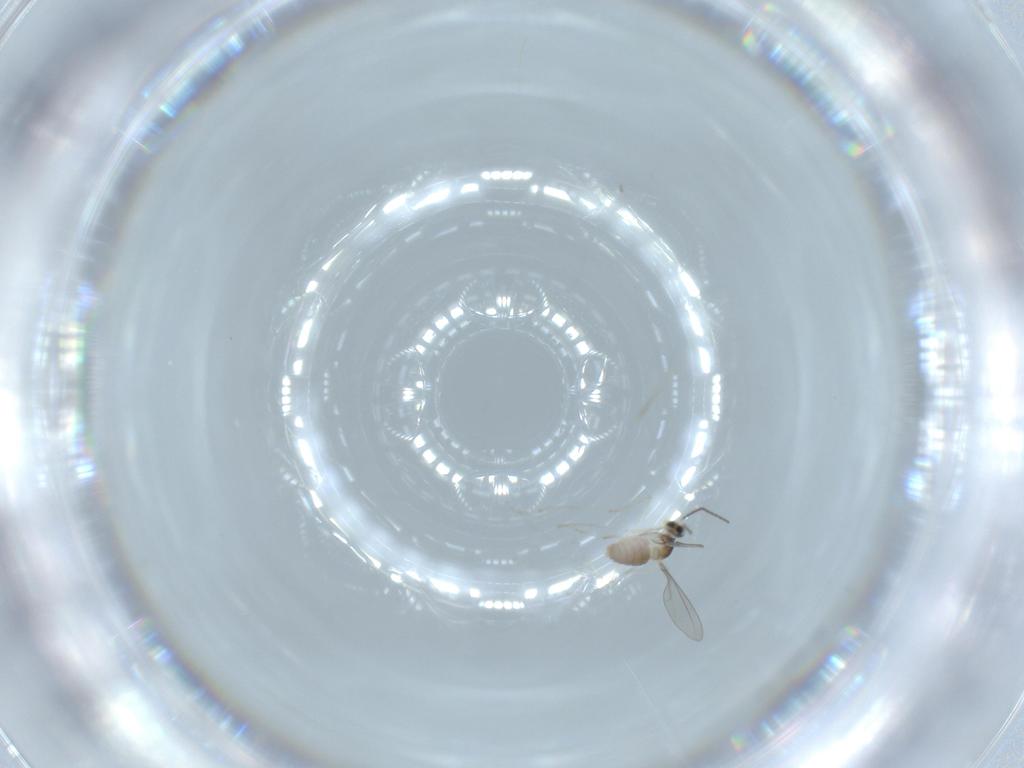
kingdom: Animalia
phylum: Arthropoda
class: Insecta
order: Diptera
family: Cecidomyiidae
